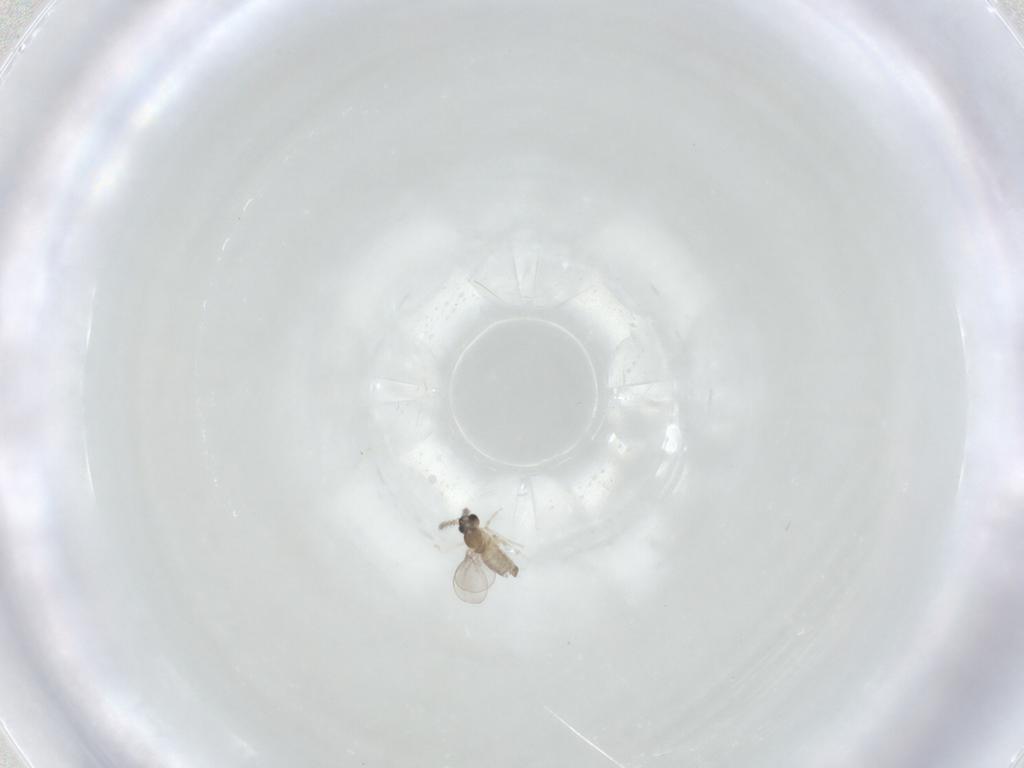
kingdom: Animalia
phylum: Arthropoda
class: Insecta
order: Diptera
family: Cecidomyiidae
